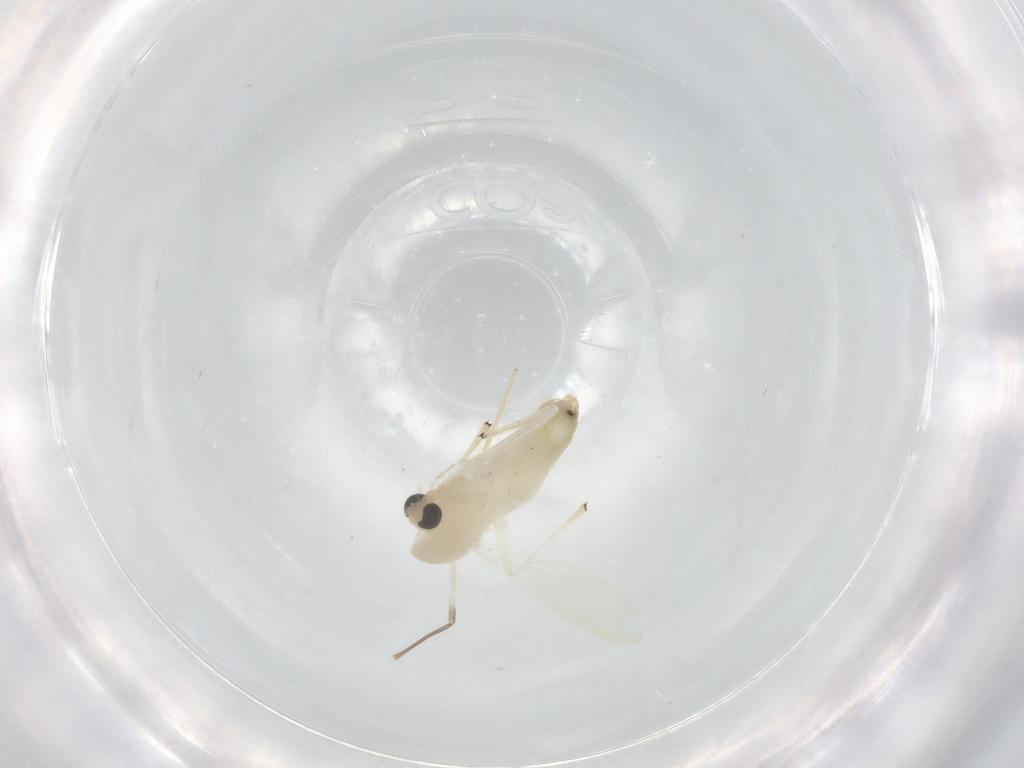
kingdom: Animalia
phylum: Arthropoda
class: Insecta
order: Diptera
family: Chironomidae
